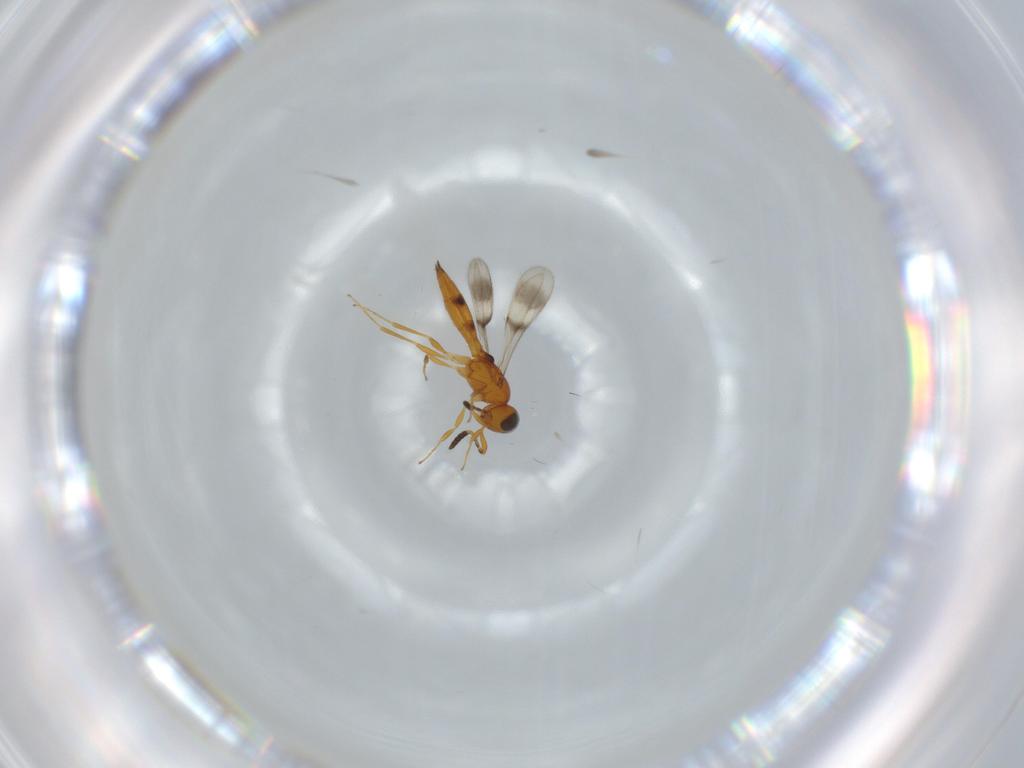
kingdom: Animalia
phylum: Arthropoda
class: Insecta
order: Hymenoptera
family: Scelionidae
